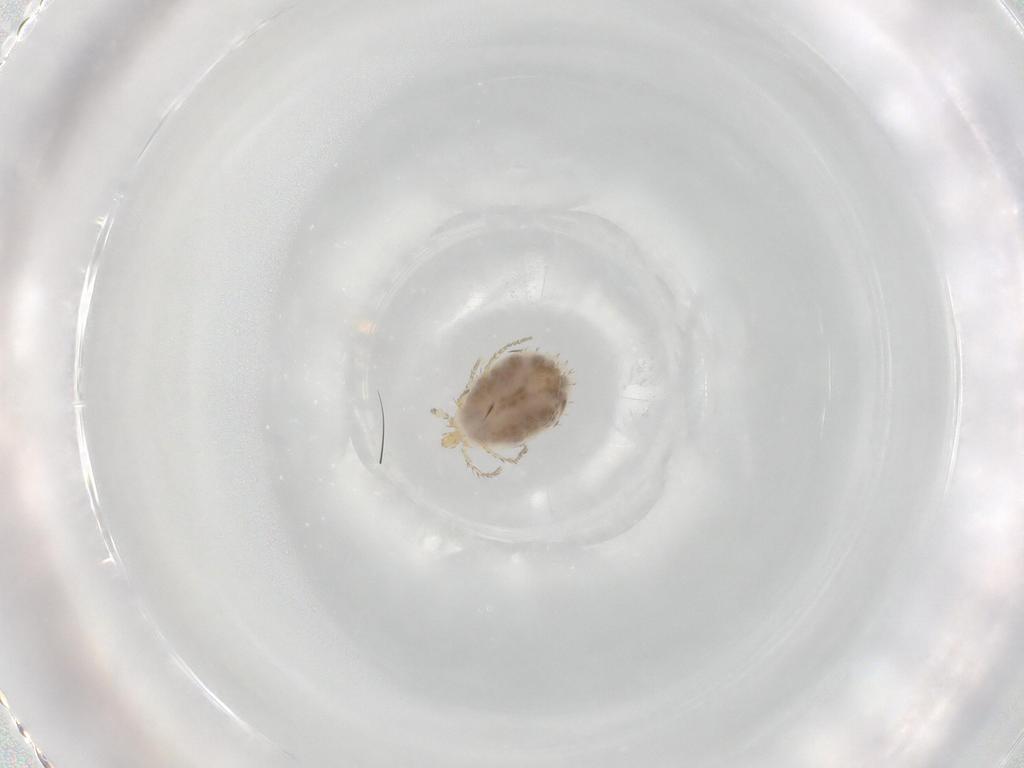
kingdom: Animalia
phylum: Arthropoda
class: Arachnida
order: Trombidiformes
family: Erythraeidae
